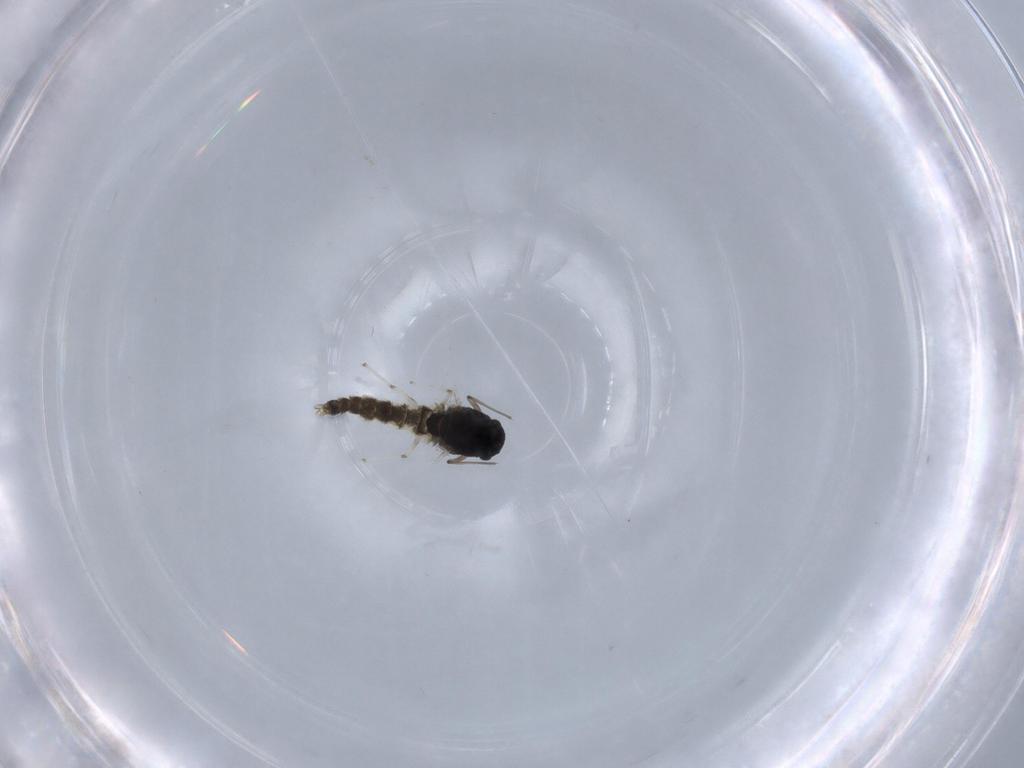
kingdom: Animalia
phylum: Arthropoda
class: Insecta
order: Diptera
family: Chironomidae
